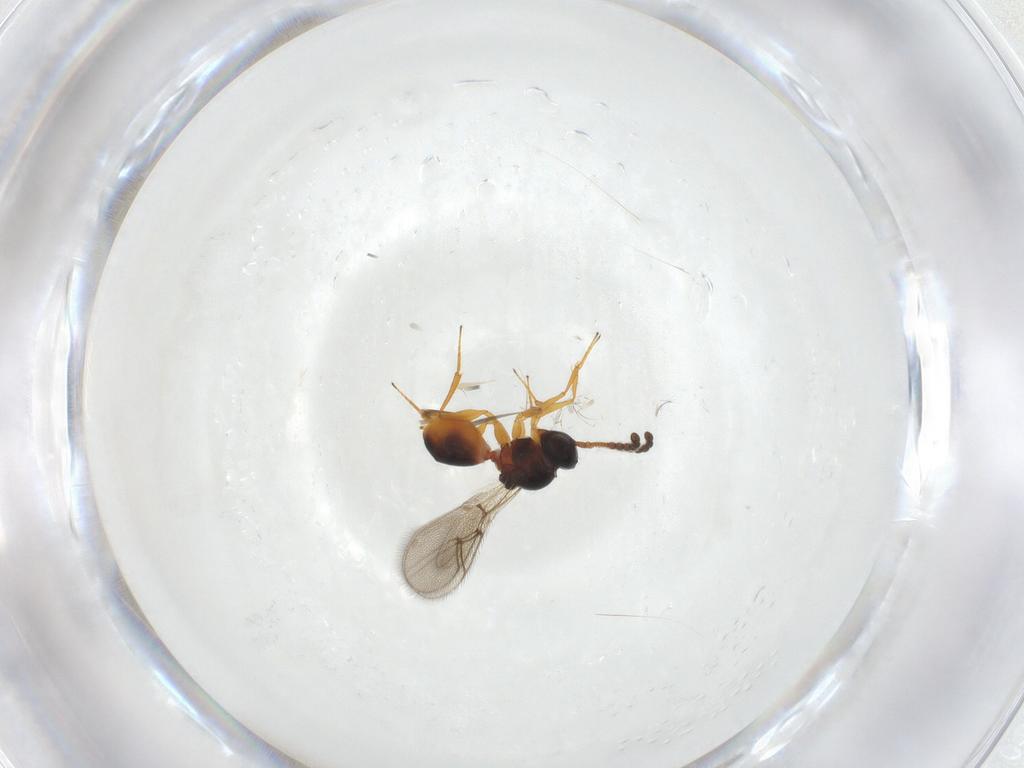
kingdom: Animalia
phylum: Arthropoda
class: Insecta
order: Hymenoptera
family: Figitidae
